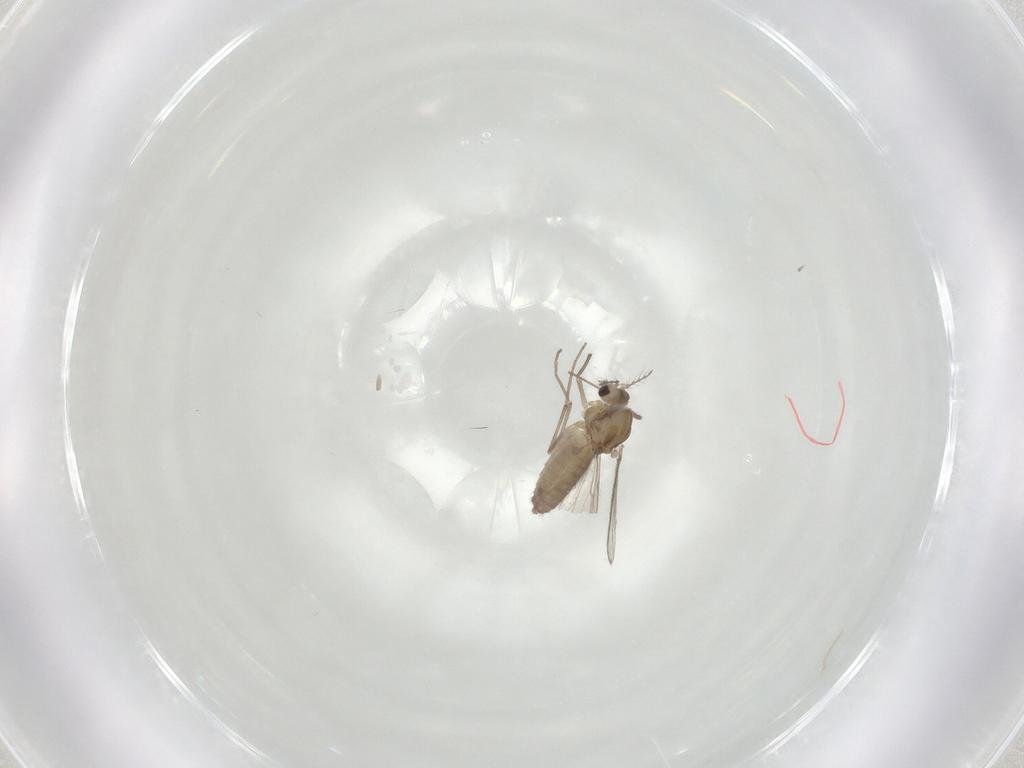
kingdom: Animalia
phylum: Arthropoda
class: Insecta
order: Diptera
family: Chironomidae
